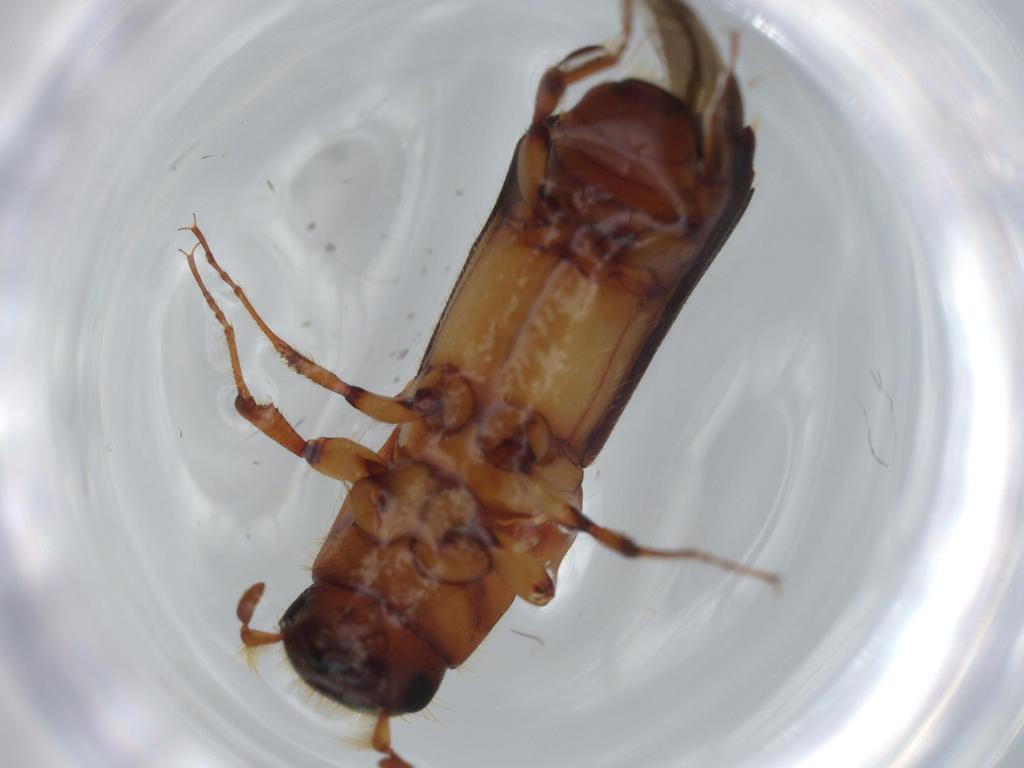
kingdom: Animalia
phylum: Arthropoda
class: Insecta
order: Coleoptera
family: Curculionidae
